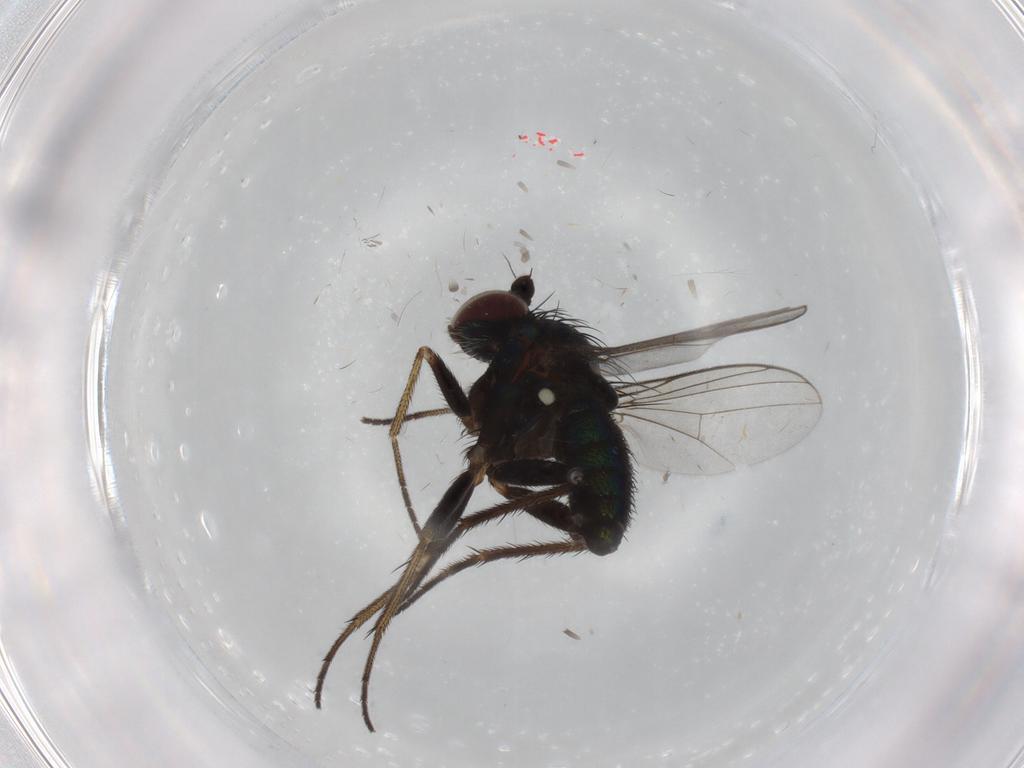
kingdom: Animalia
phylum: Arthropoda
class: Insecta
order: Diptera
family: Dolichopodidae
